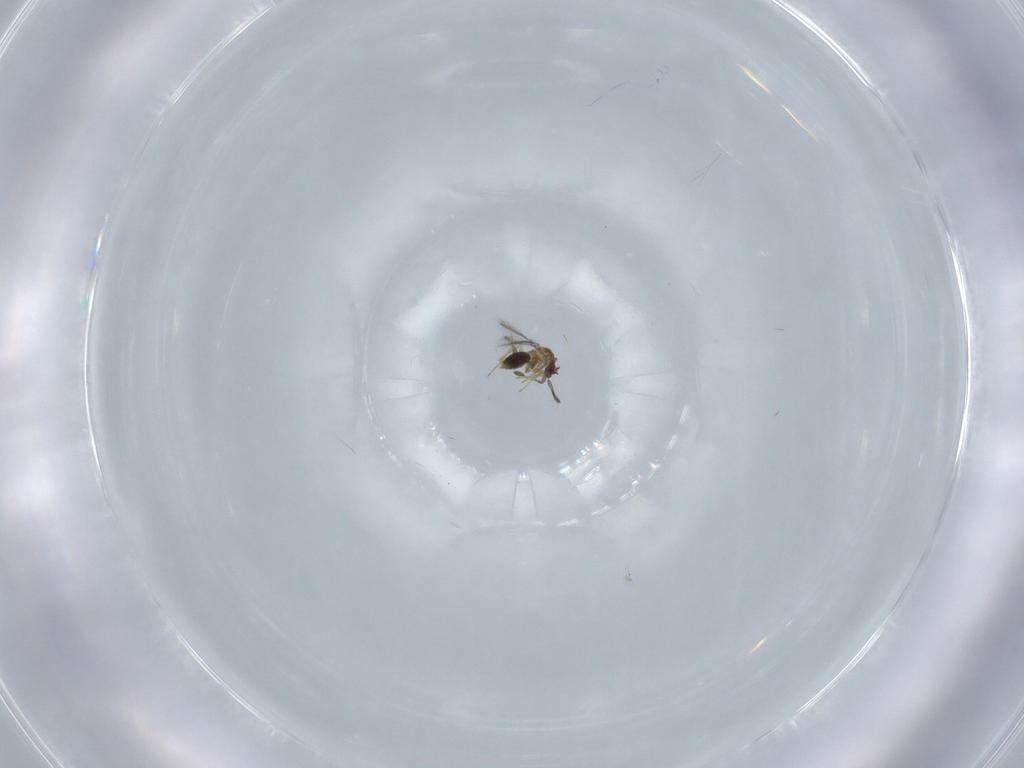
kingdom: Animalia
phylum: Arthropoda
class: Insecta
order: Hymenoptera
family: Mymaridae
